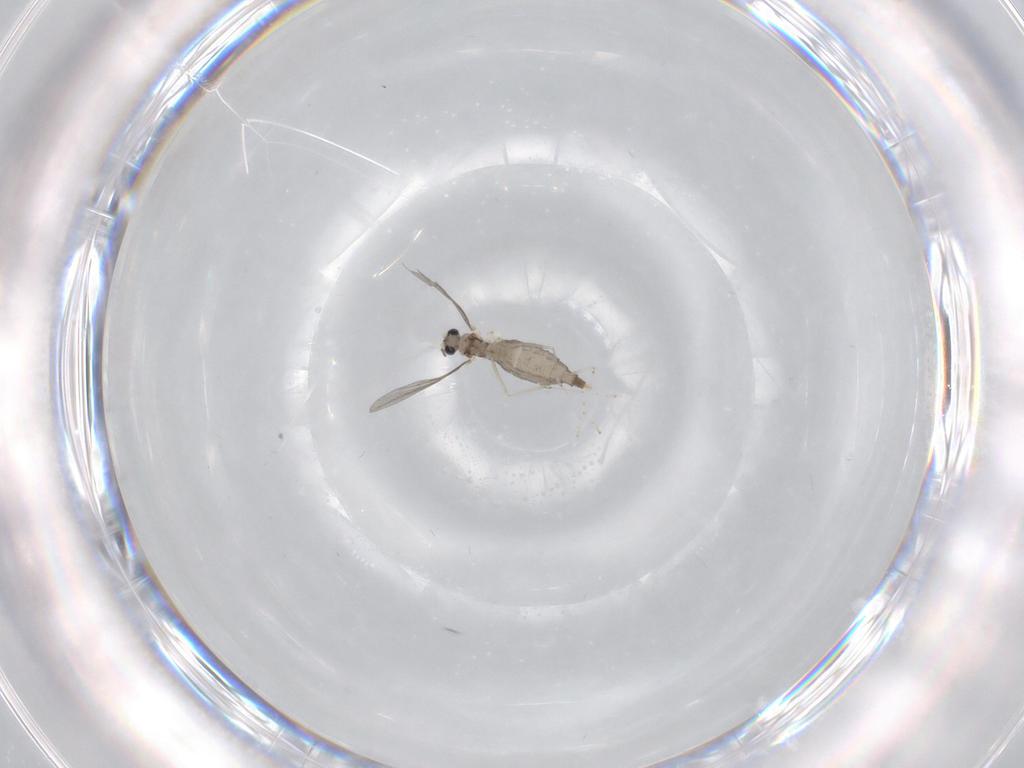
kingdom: Animalia
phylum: Arthropoda
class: Insecta
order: Diptera
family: Cecidomyiidae
